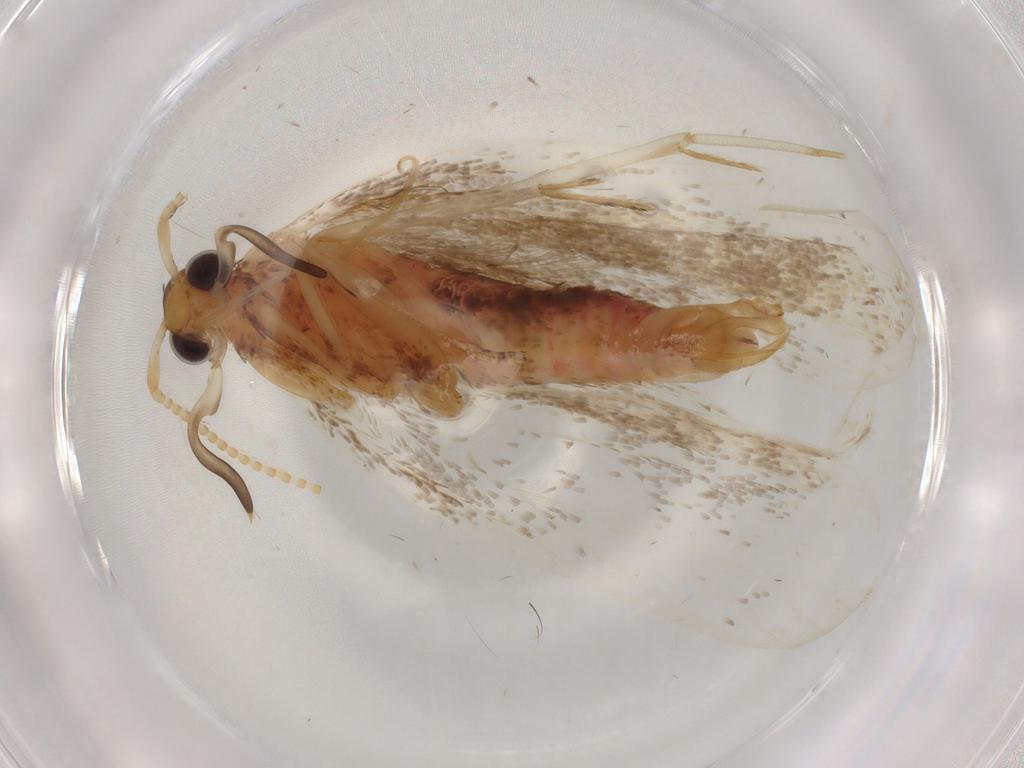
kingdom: Animalia
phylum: Arthropoda
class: Insecta
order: Lepidoptera
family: Lecithoceridae
